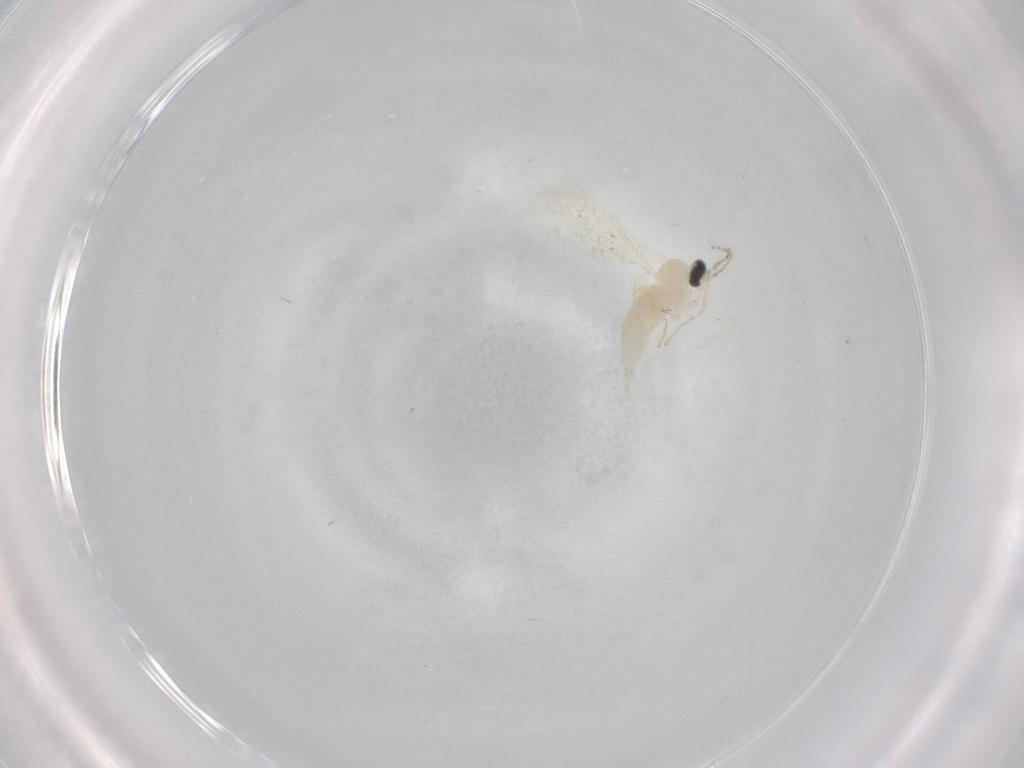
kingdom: Animalia
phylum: Arthropoda
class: Insecta
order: Diptera
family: Cecidomyiidae
